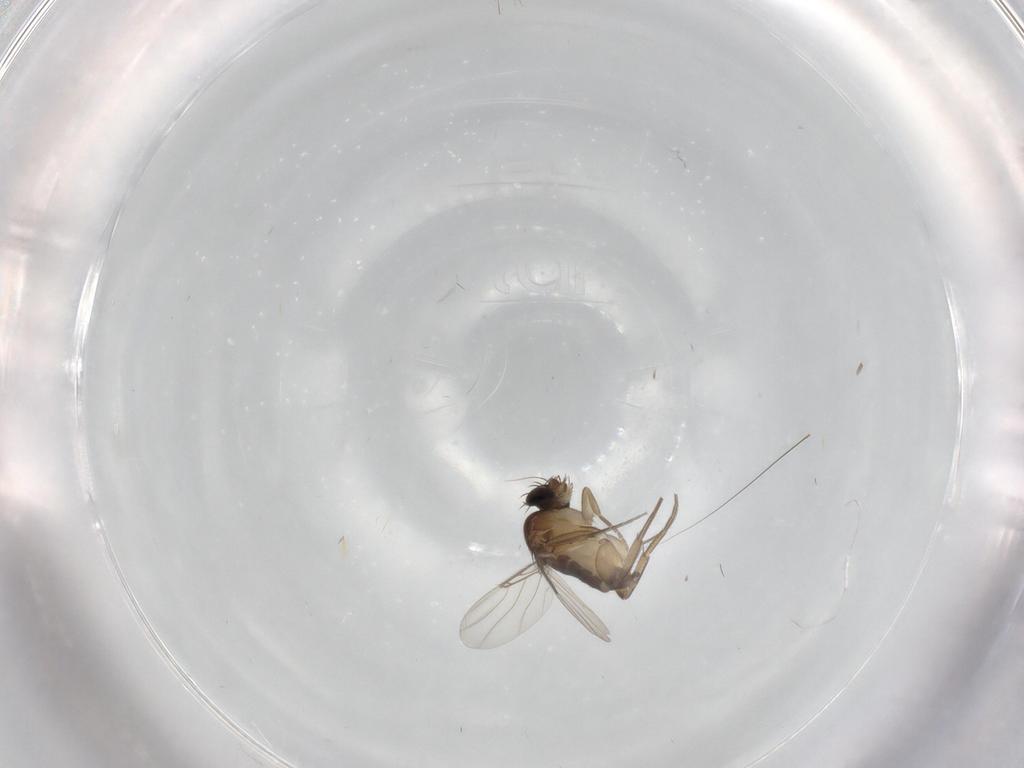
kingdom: Animalia
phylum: Arthropoda
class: Insecta
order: Diptera
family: Phoridae
